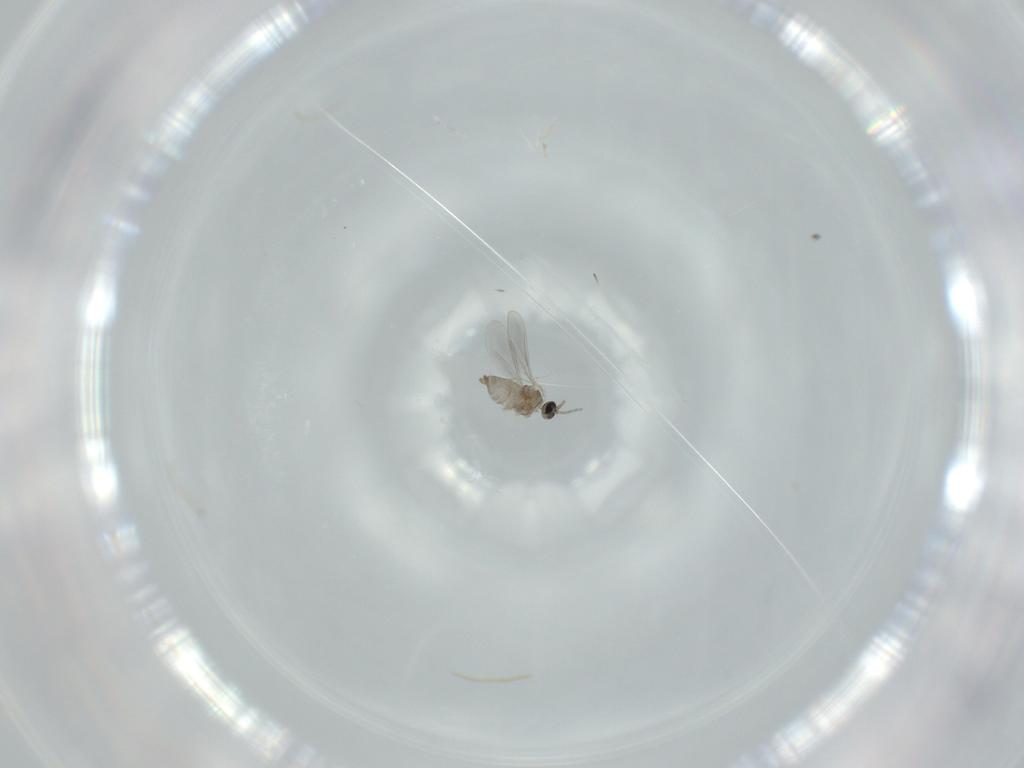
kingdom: Animalia
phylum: Arthropoda
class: Insecta
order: Diptera
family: Cecidomyiidae
